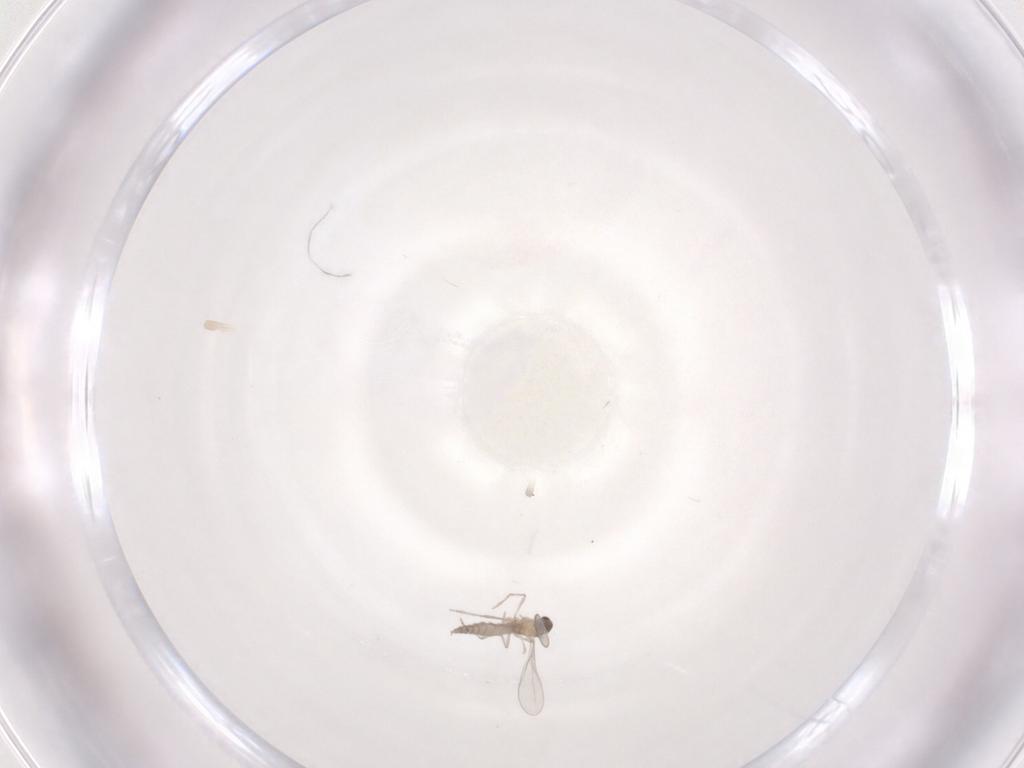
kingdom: Animalia
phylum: Arthropoda
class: Insecta
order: Diptera
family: Cecidomyiidae
